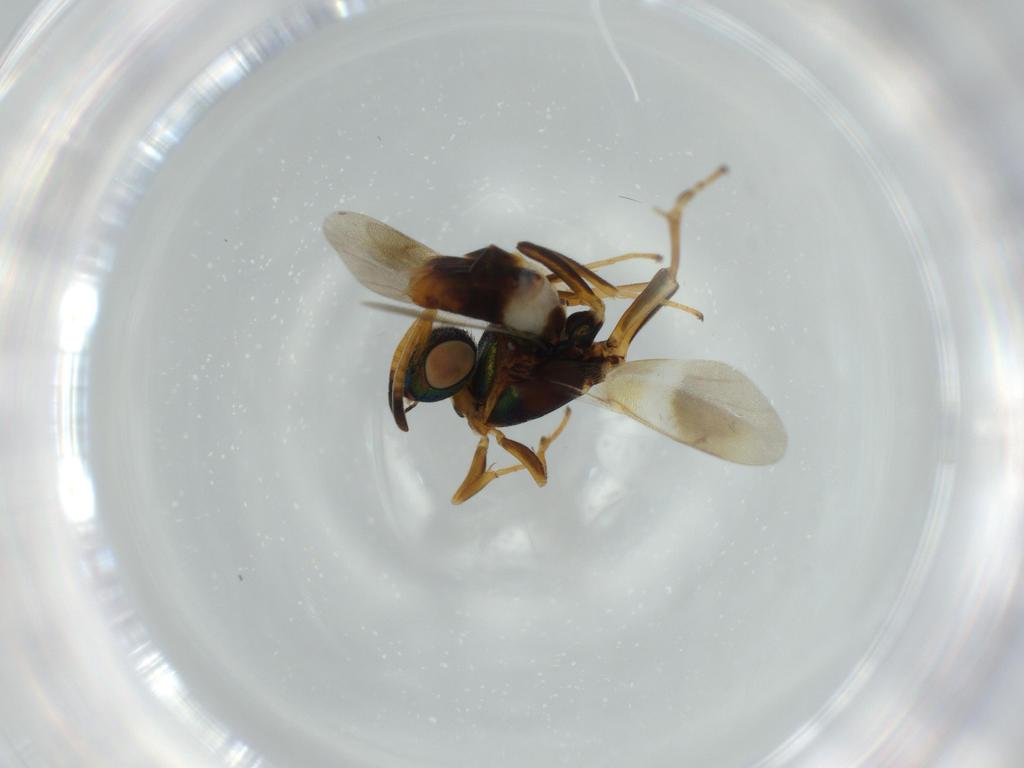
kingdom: Animalia
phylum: Arthropoda
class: Insecta
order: Hymenoptera
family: Eupelmidae
